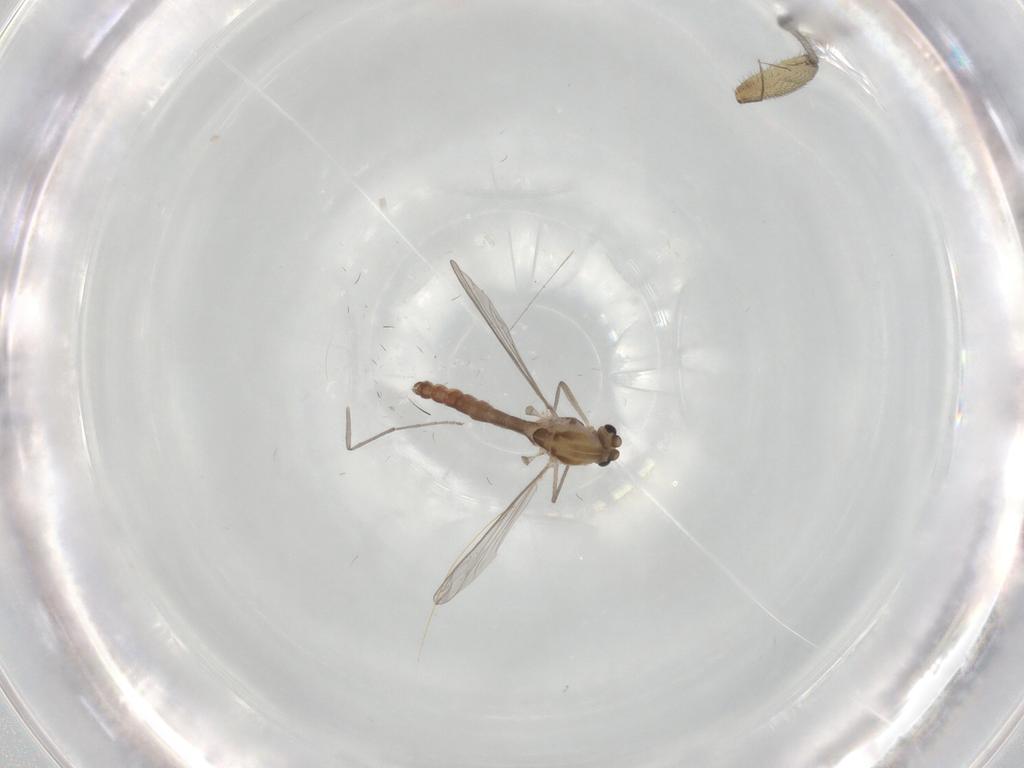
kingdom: Animalia
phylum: Arthropoda
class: Insecta
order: Diptera
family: Chironomidae
